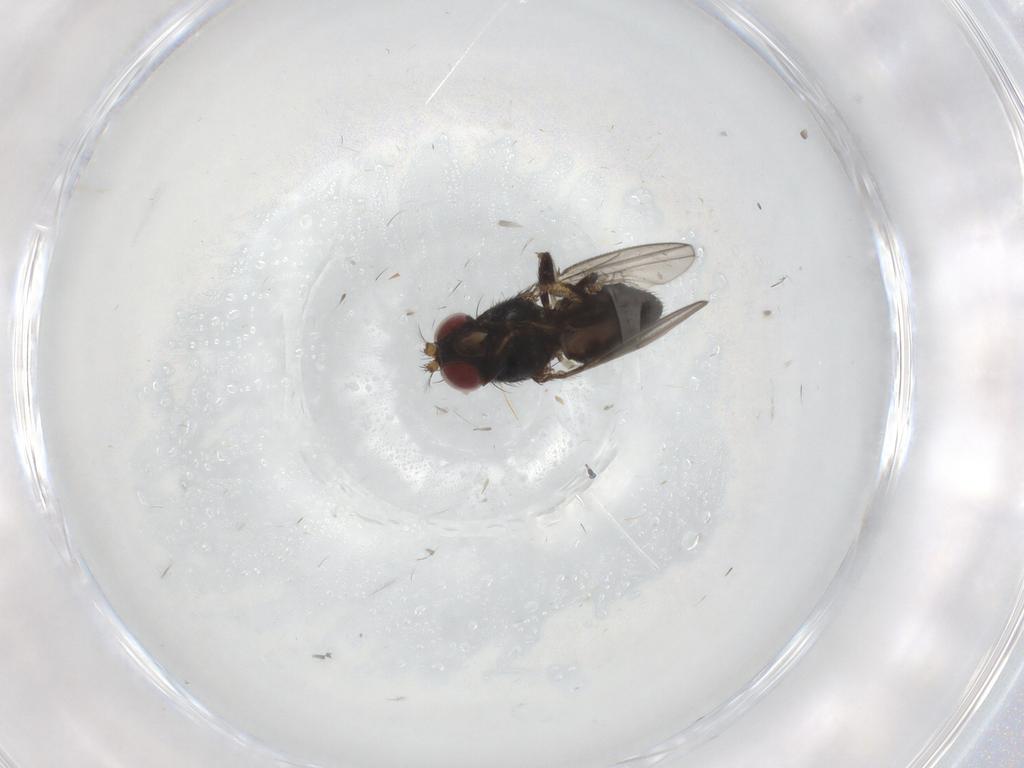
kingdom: Animalia
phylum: Arthropoda
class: Insecta
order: Diptera
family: Ephydridae
